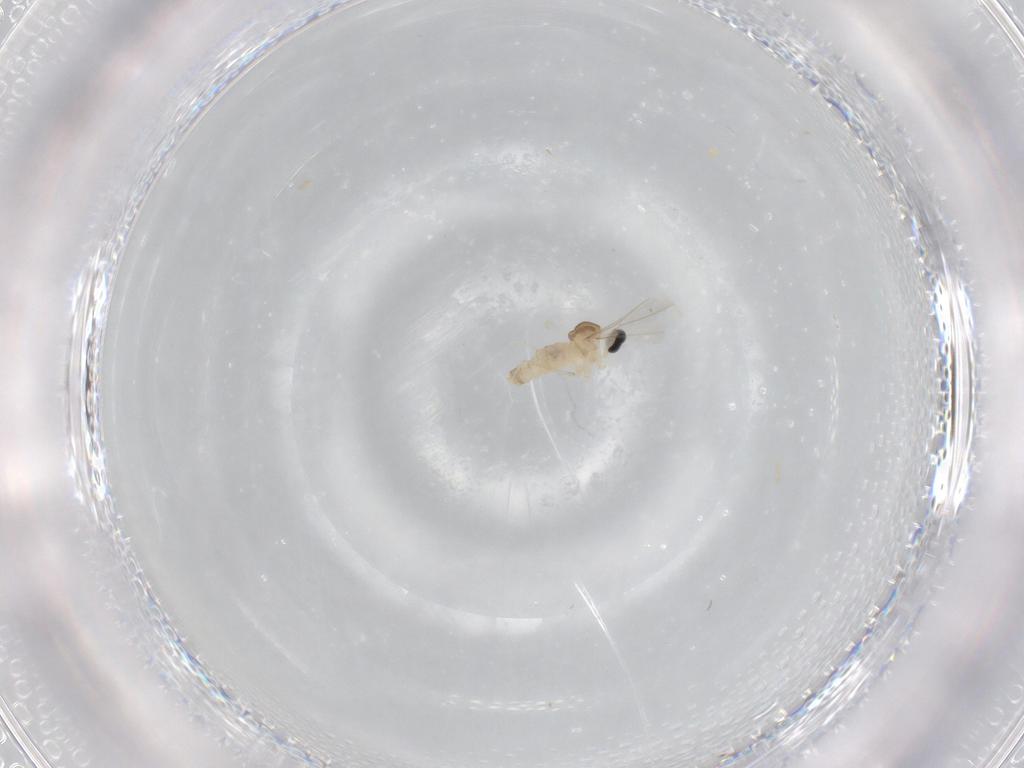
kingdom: Animalia
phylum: Arthropoda
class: Insecta
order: Diptera
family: Cecidomyiidae
